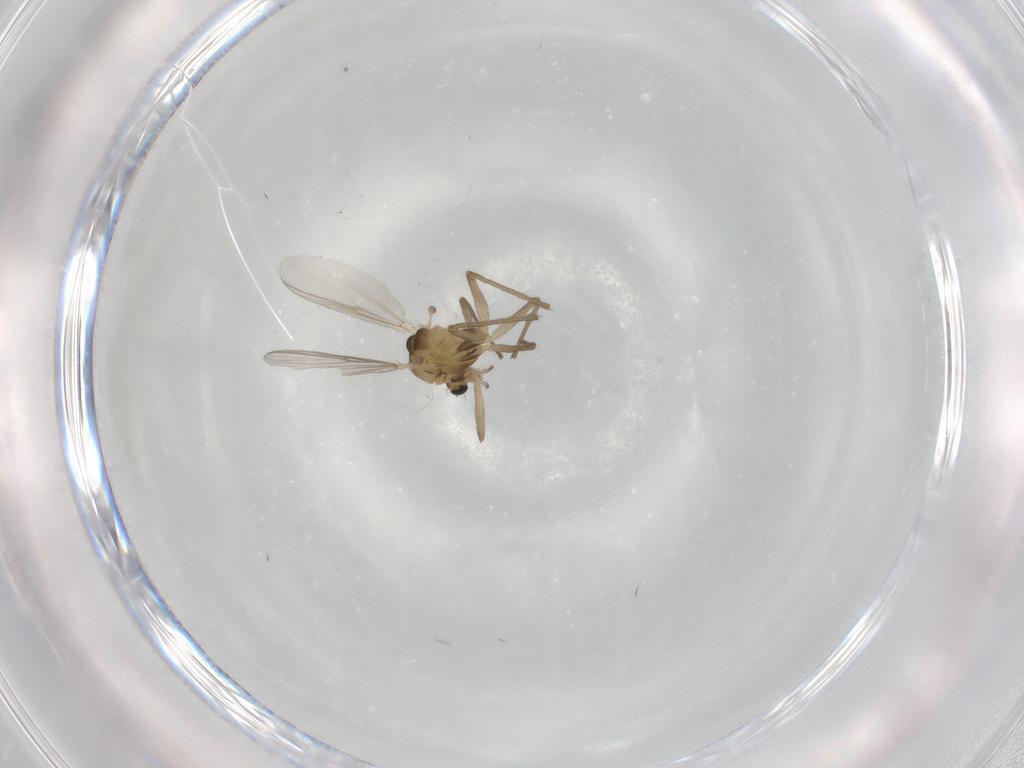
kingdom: Animalia
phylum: Arthropoda
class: Insecta
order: Diptera
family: Chironomidae
